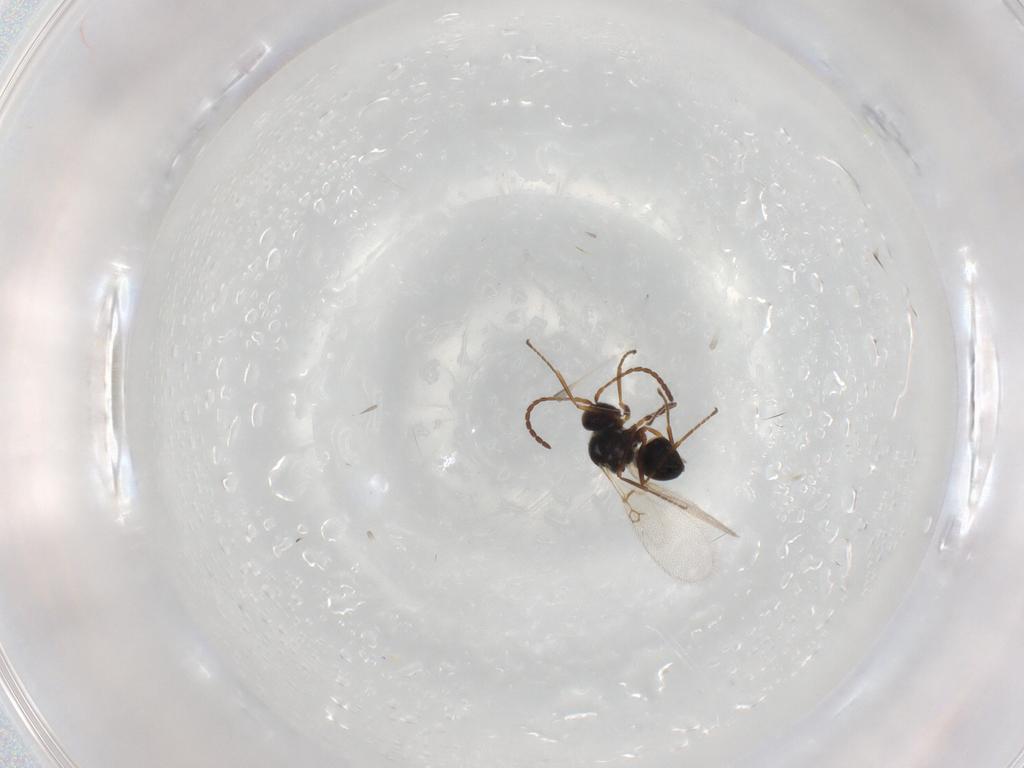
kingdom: Animalia
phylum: Arthropoda
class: Insecta
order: Hymenoptera
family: Figitidae
